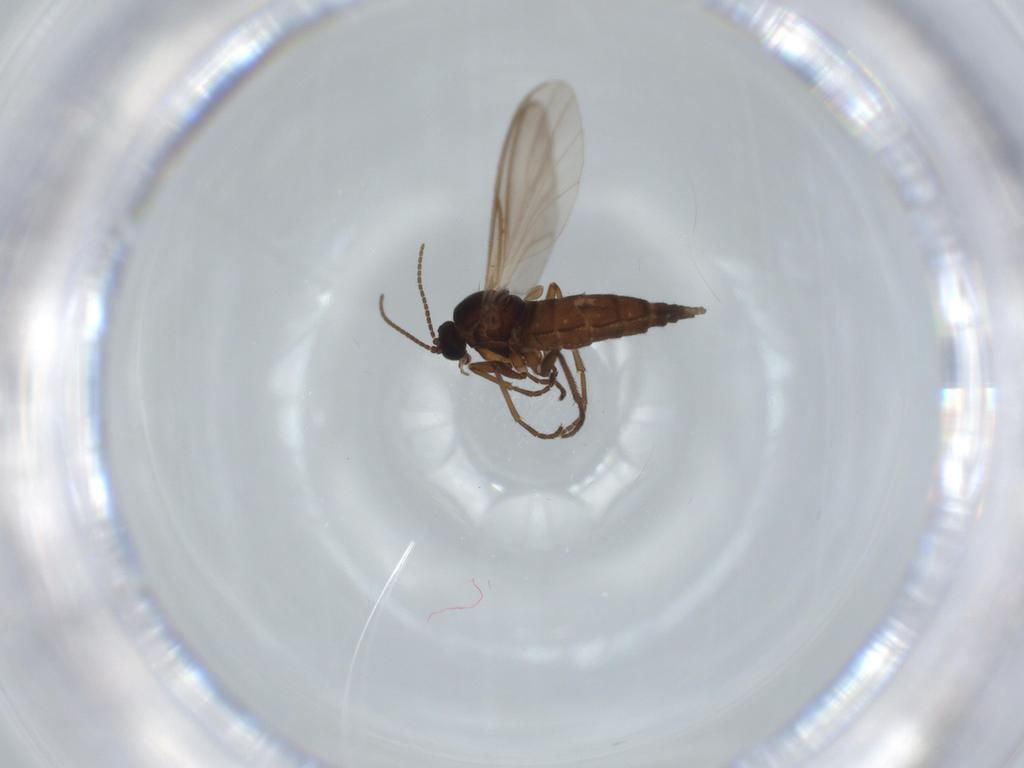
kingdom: Animalia
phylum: Arthropoda
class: Insecta
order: Diptera
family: Sciaridae
